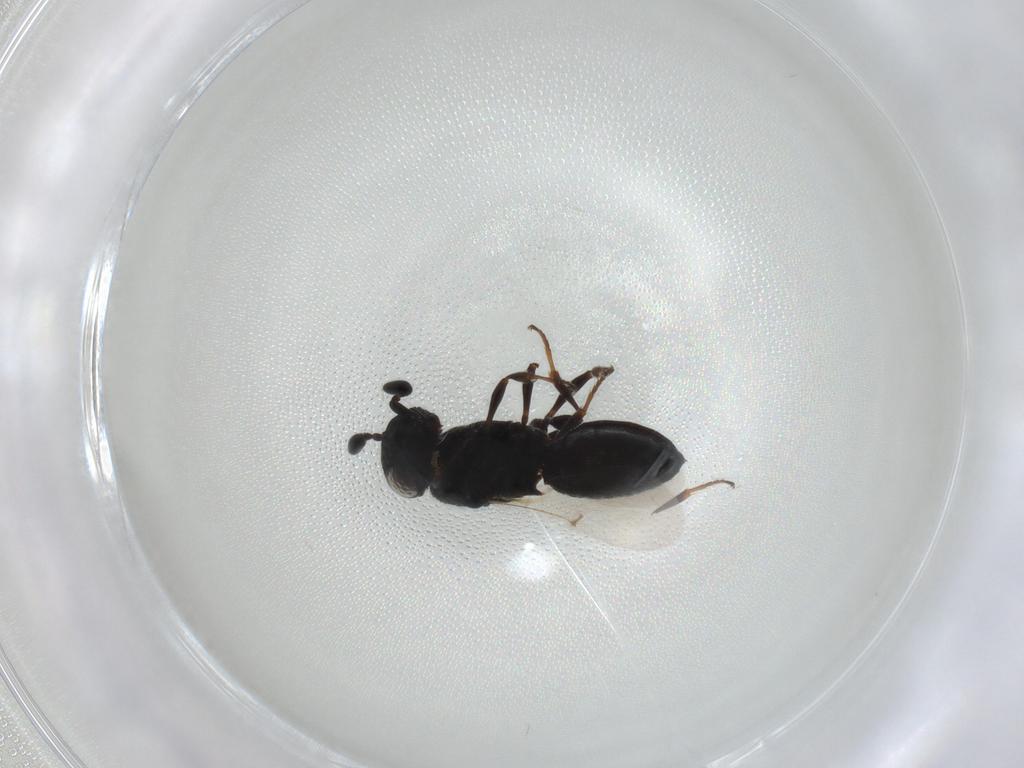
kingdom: Animalia
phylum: Arthropoda
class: Insecta
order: Hymenoptera
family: Scelionidae
